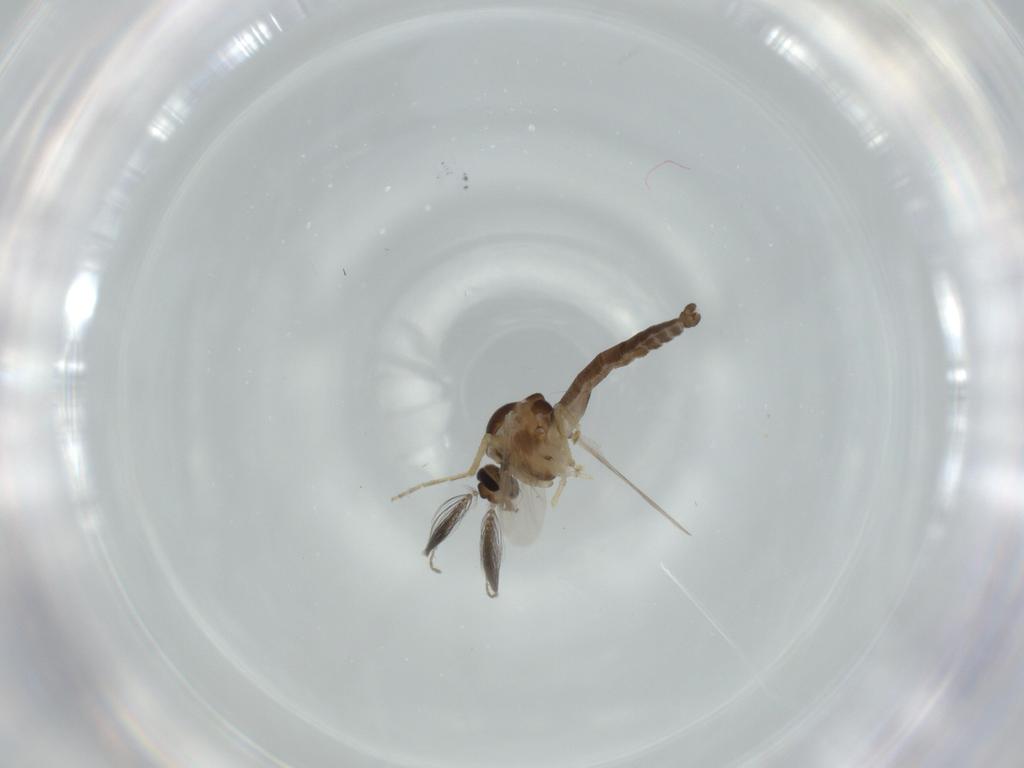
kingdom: Animalia
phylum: Arthropoda
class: Insecta
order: Diptera
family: Ceratopogonidae
